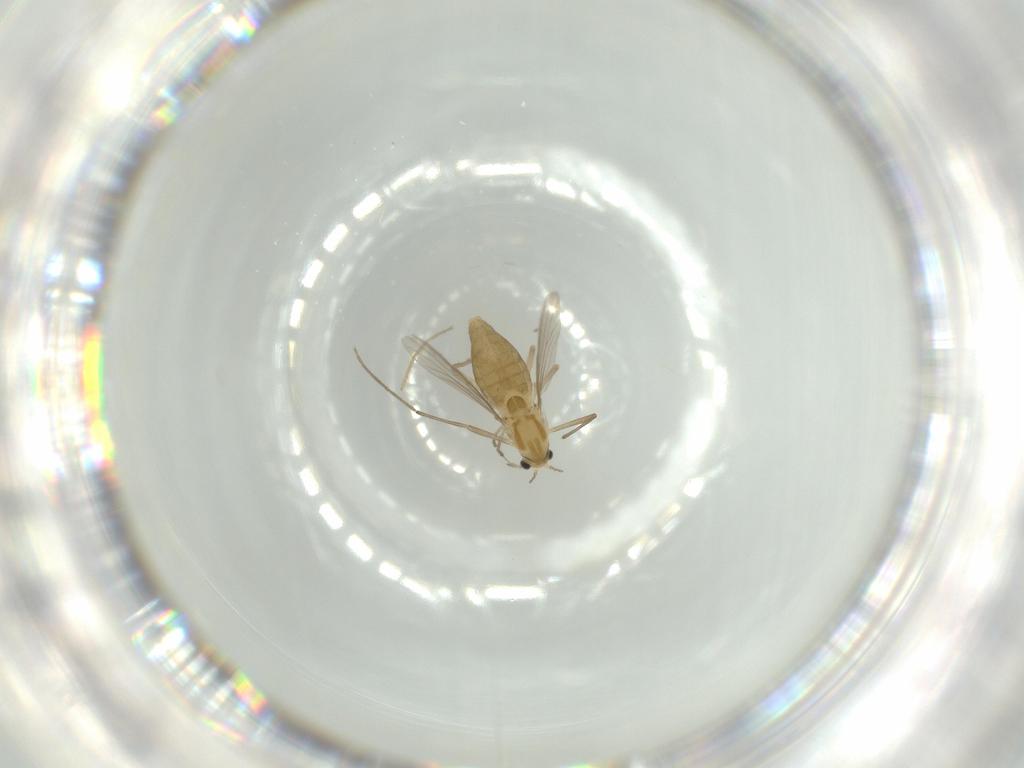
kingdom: Animalia
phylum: Arthropoda
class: Insecta
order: Diptera
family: Chironomidae
